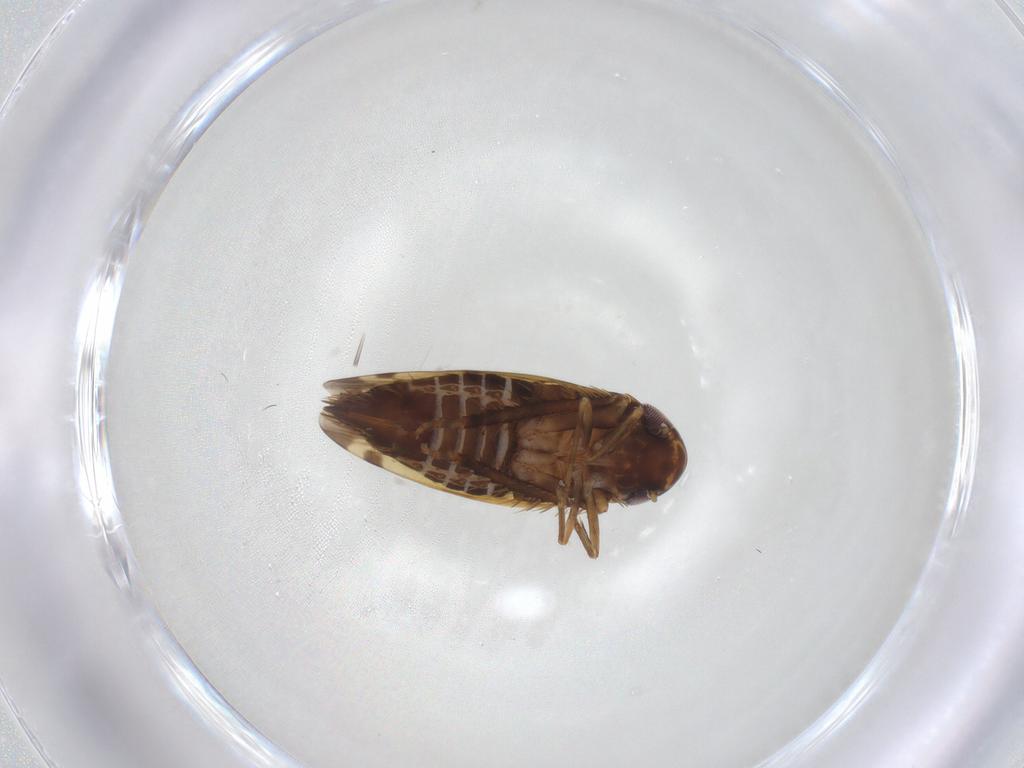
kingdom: Animalia
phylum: Arthropoda
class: Insecta
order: Hemiptera
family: Cicadellidae
